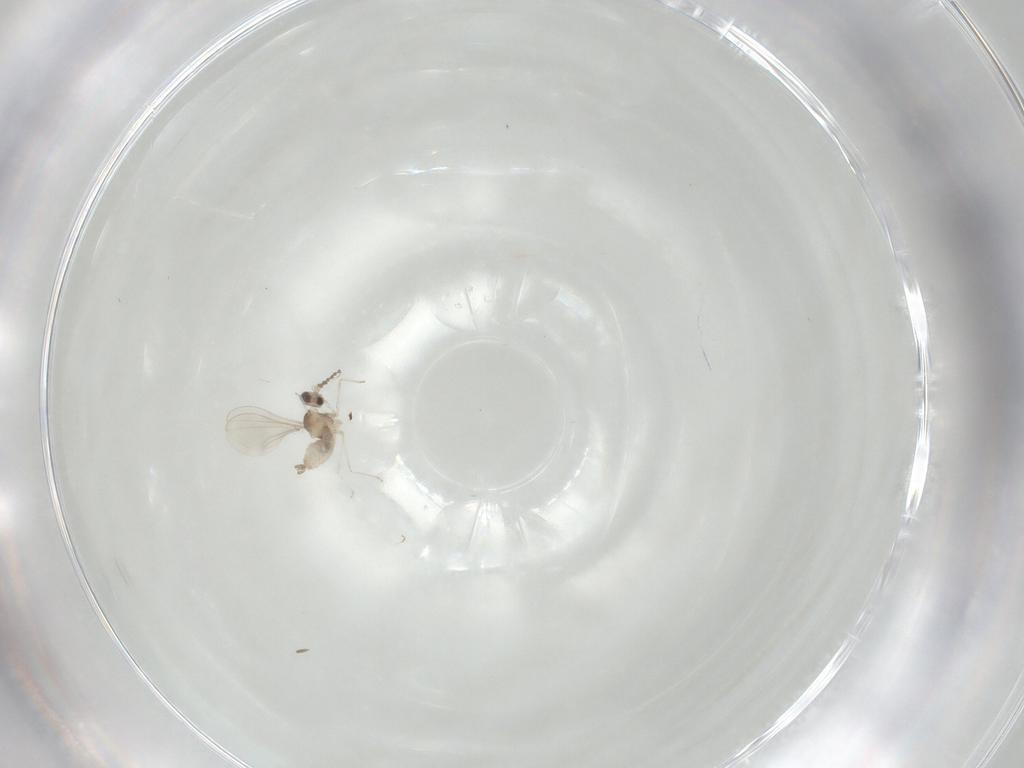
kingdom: Animalia
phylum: Arthropoda
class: Insecta
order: Diptera
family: Cecidomyiidae
